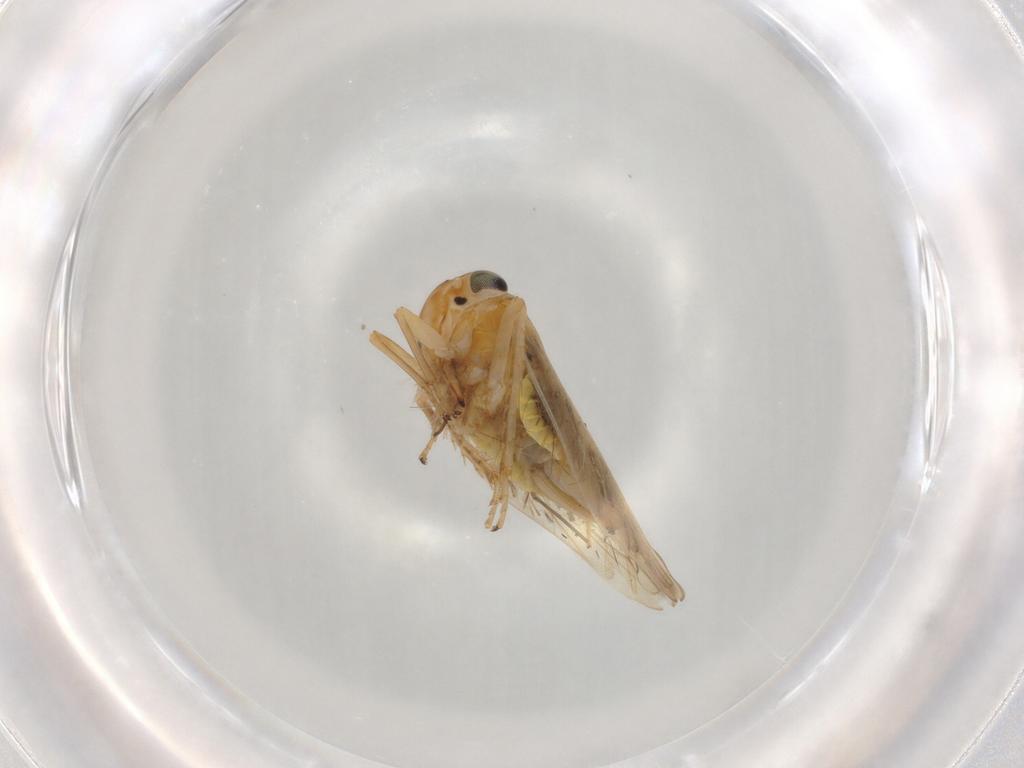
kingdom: Animalia
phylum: Arthropoda
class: Insecta
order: Hemiptera
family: Cicadellidae
